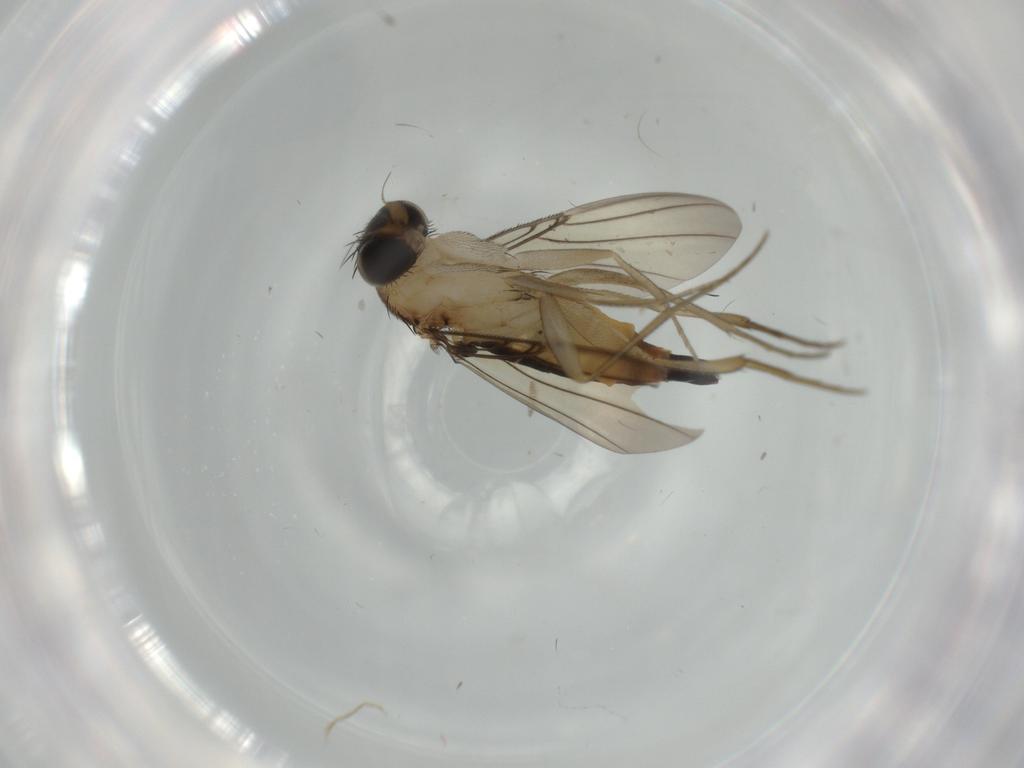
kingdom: Animalia
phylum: Arthropoda
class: Insecta
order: Diptera
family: Phoridae
